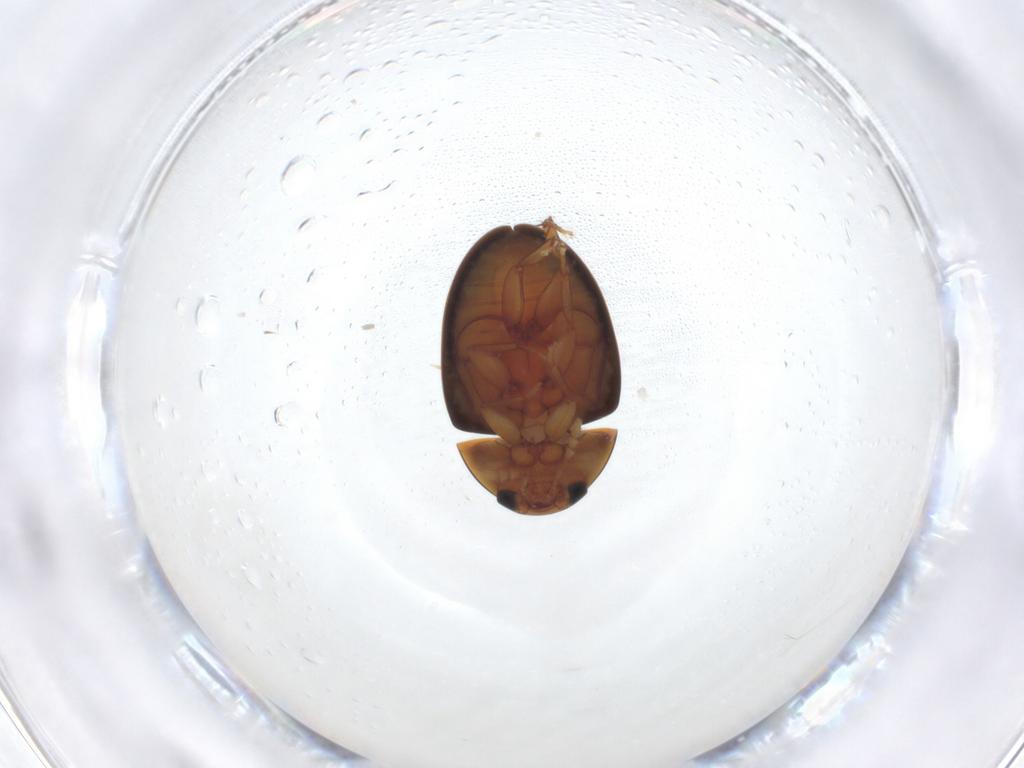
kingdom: Animalia
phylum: Arthropoda
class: Insecta
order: Coleoptera
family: Phalacridae
